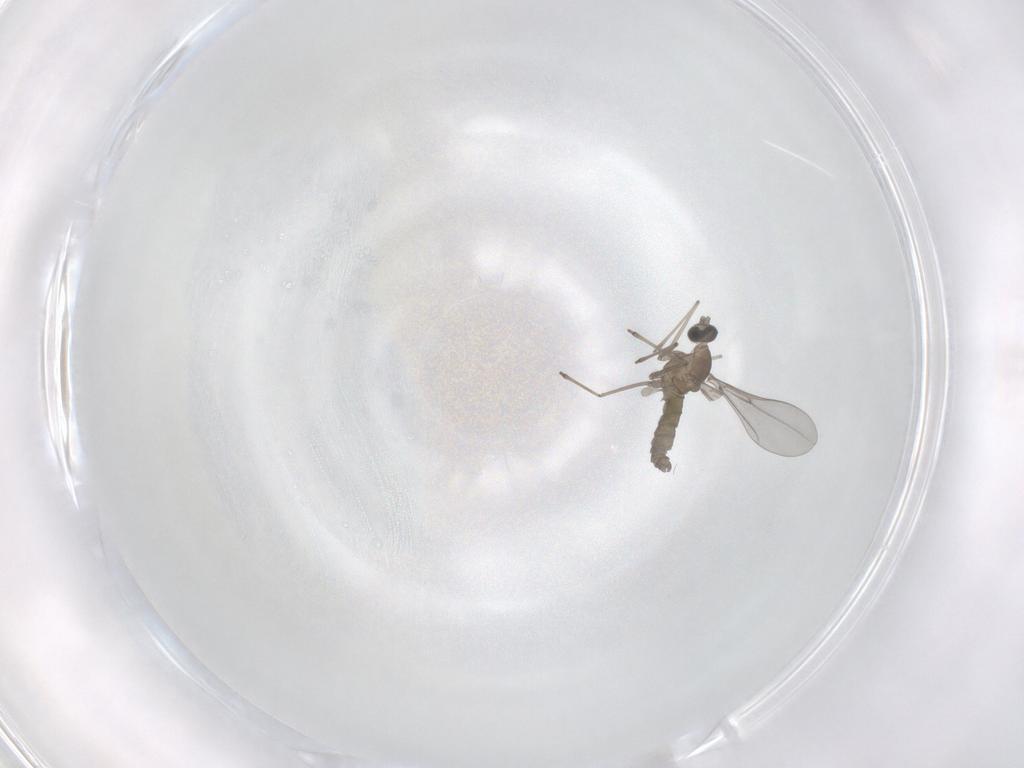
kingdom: Animalia
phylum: Arthropoda
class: Insecta
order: Diptera
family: Cecidomyiidae
